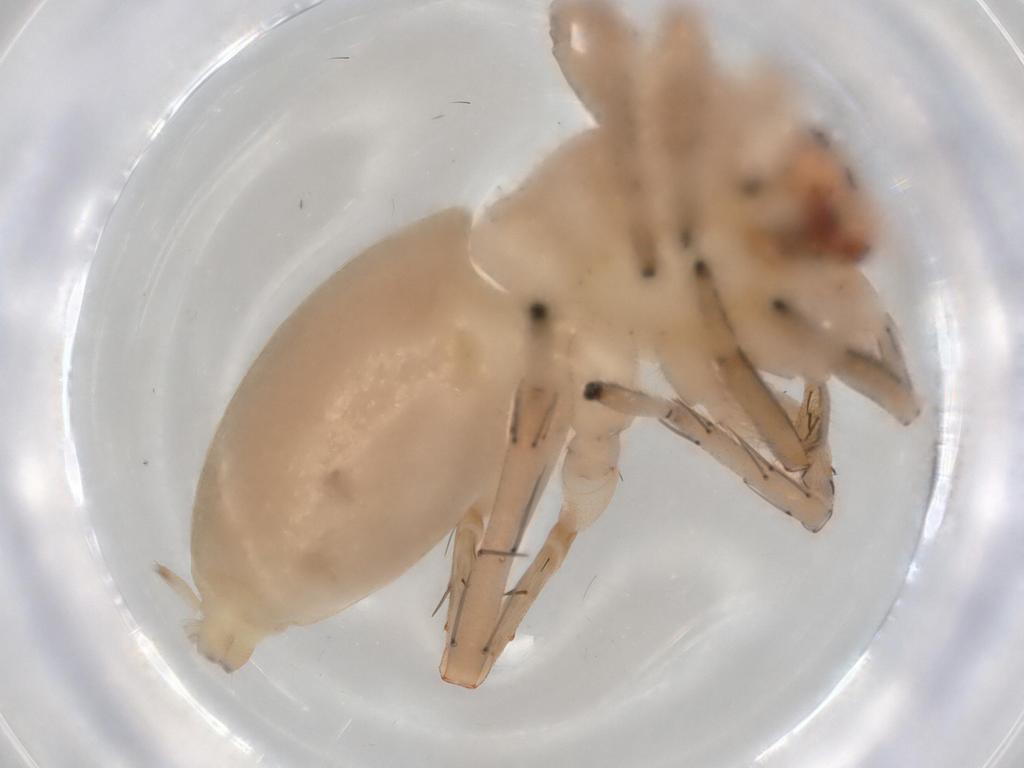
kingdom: Animalia
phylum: Arthropoda
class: Arachnida
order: Araneae
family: Clubionidae
